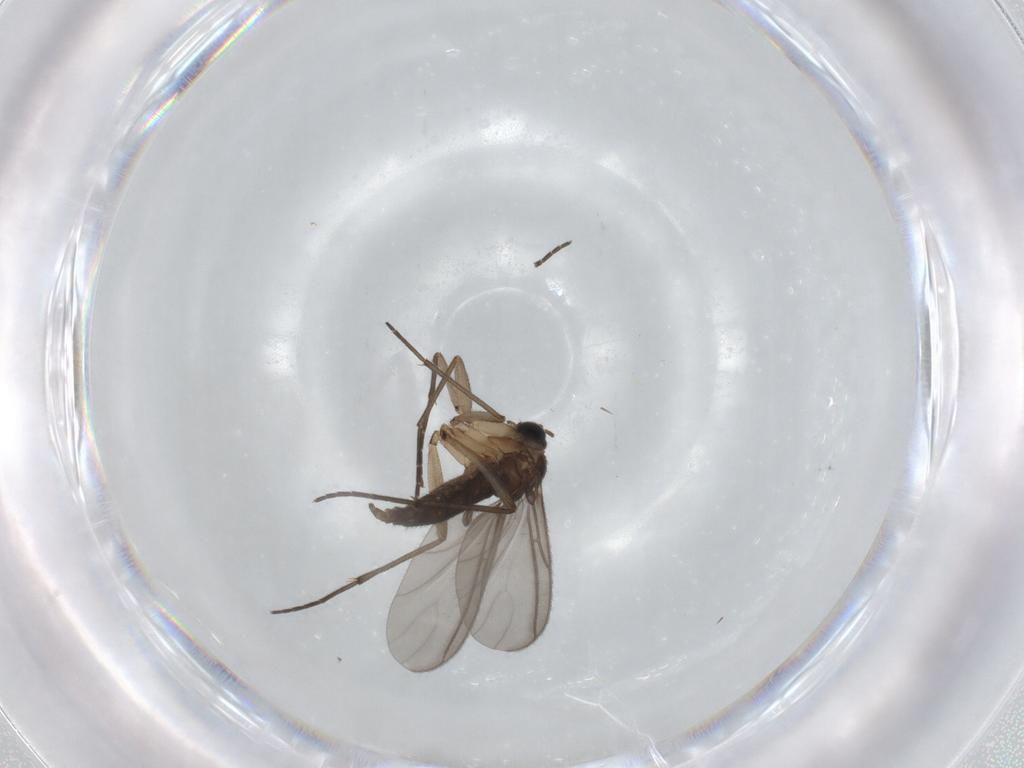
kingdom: Animalia
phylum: Arthropoda
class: Insecta
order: Diptera
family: Sciaridae
